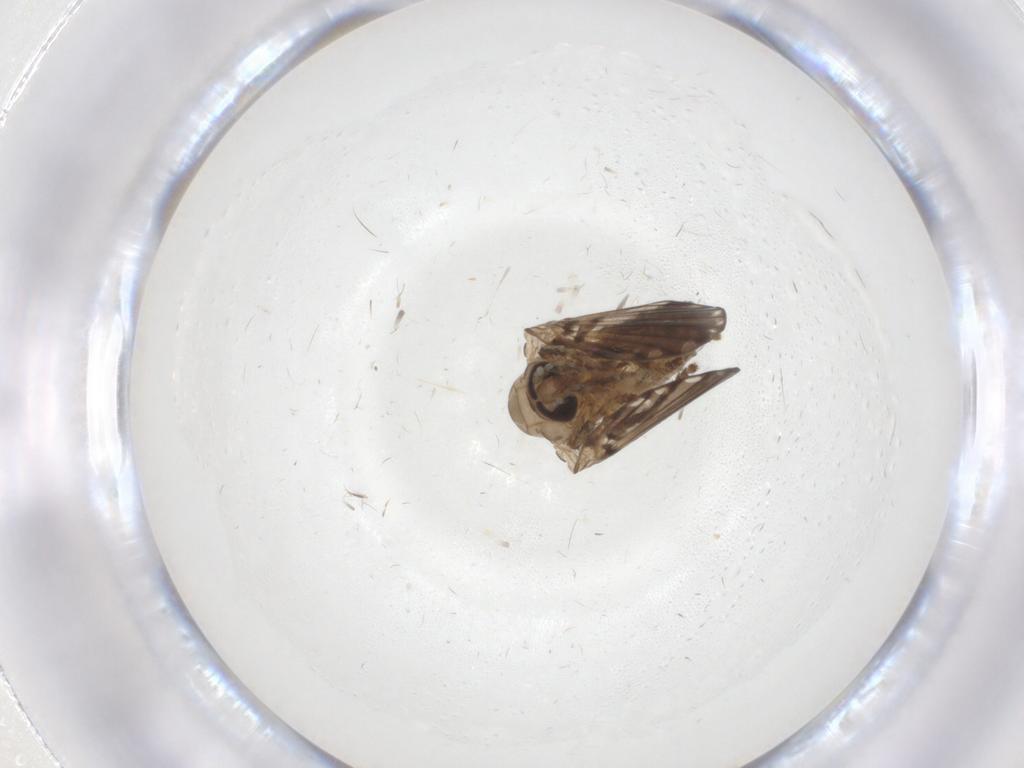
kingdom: Animalia
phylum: Arthropoda
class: Insecta
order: Diptera
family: Psychodidae
